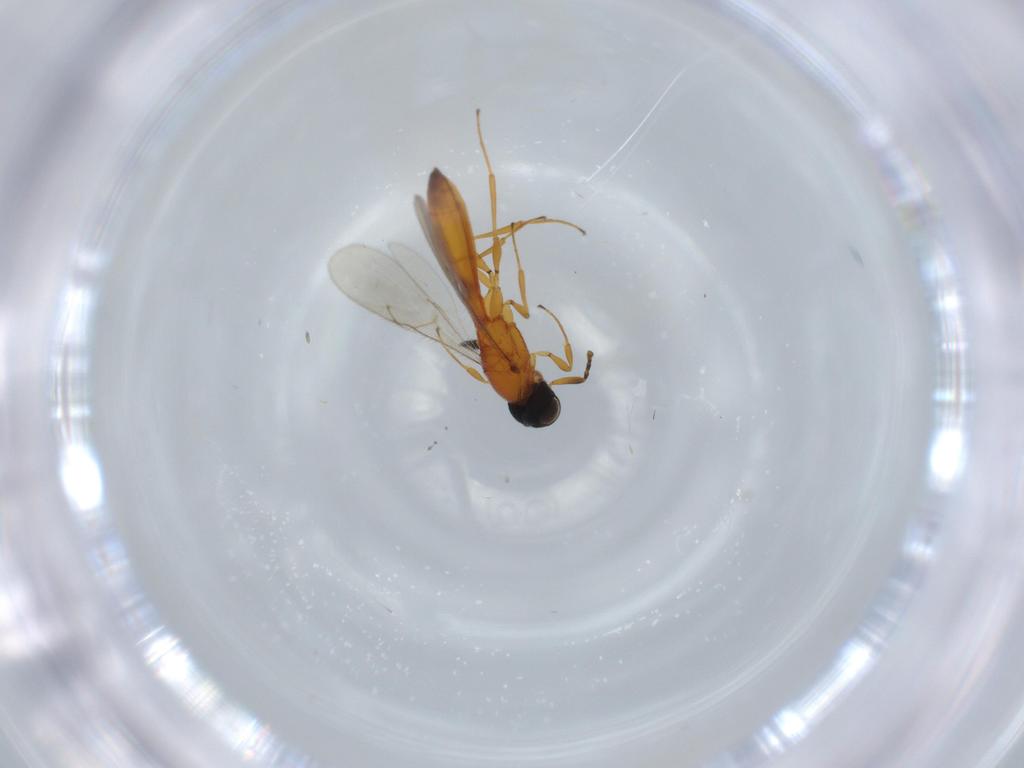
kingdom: Animalia
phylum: Arthropoda
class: Insecta
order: Hymenoptera
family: Scelionidae
